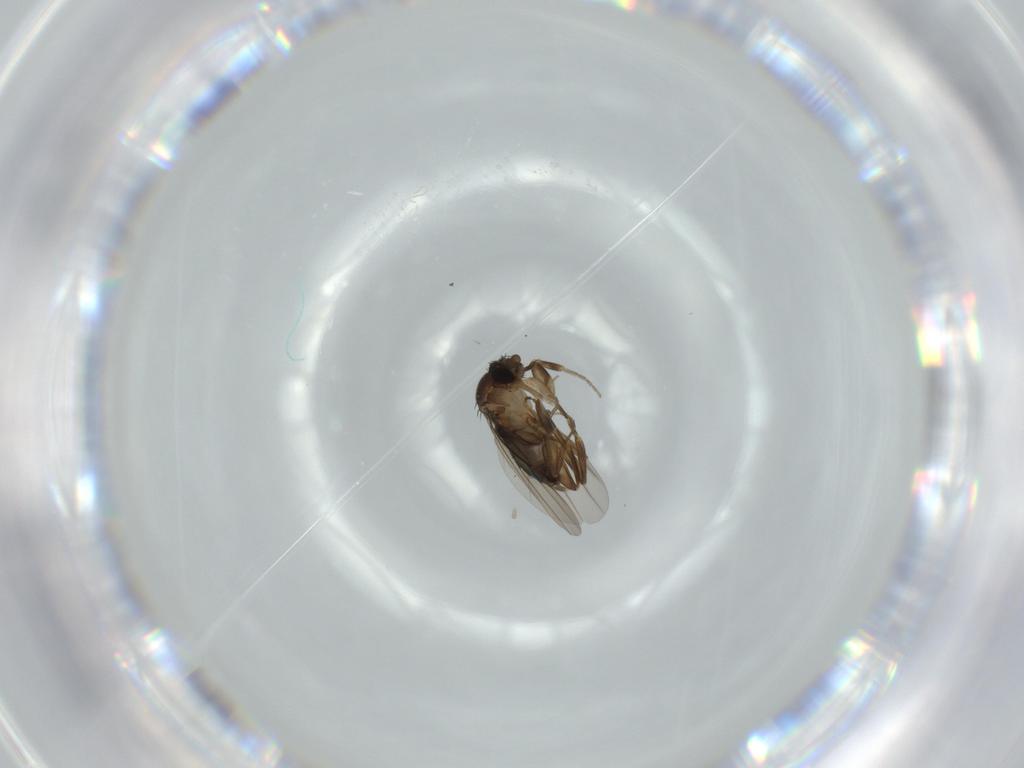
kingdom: Animalia
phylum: Arthropoda
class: Insecta
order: Diptera
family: Phoridae
